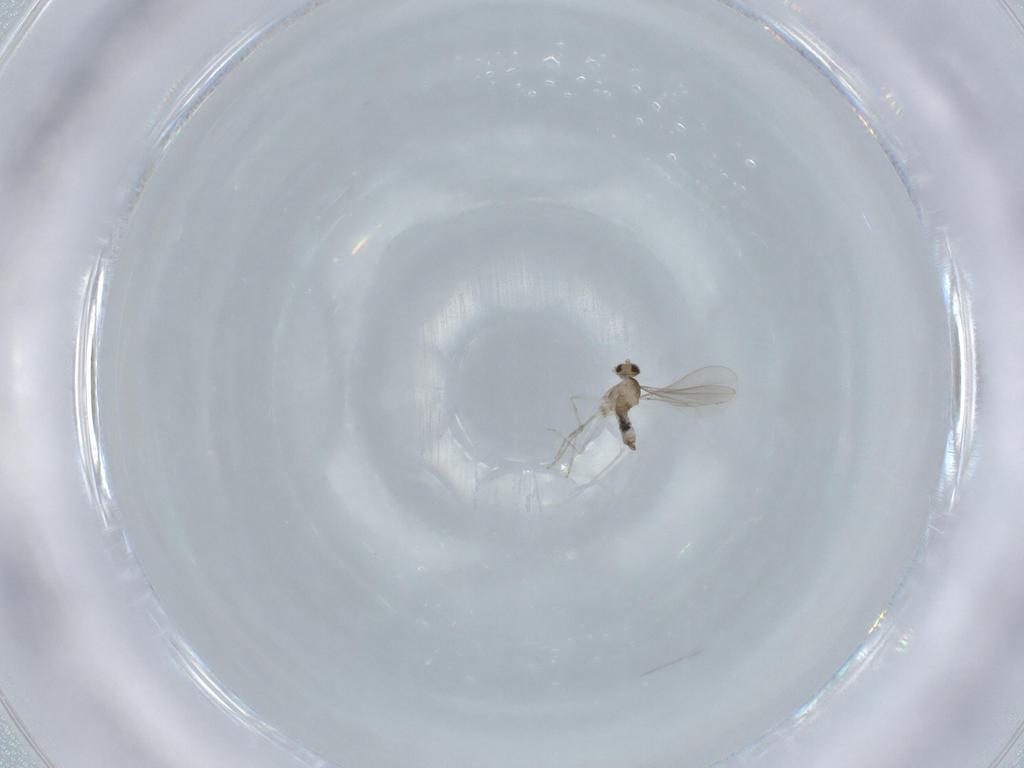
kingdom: Animalia
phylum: Arthropoda
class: Insecta
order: Diptera
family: Cecidomyiidae
